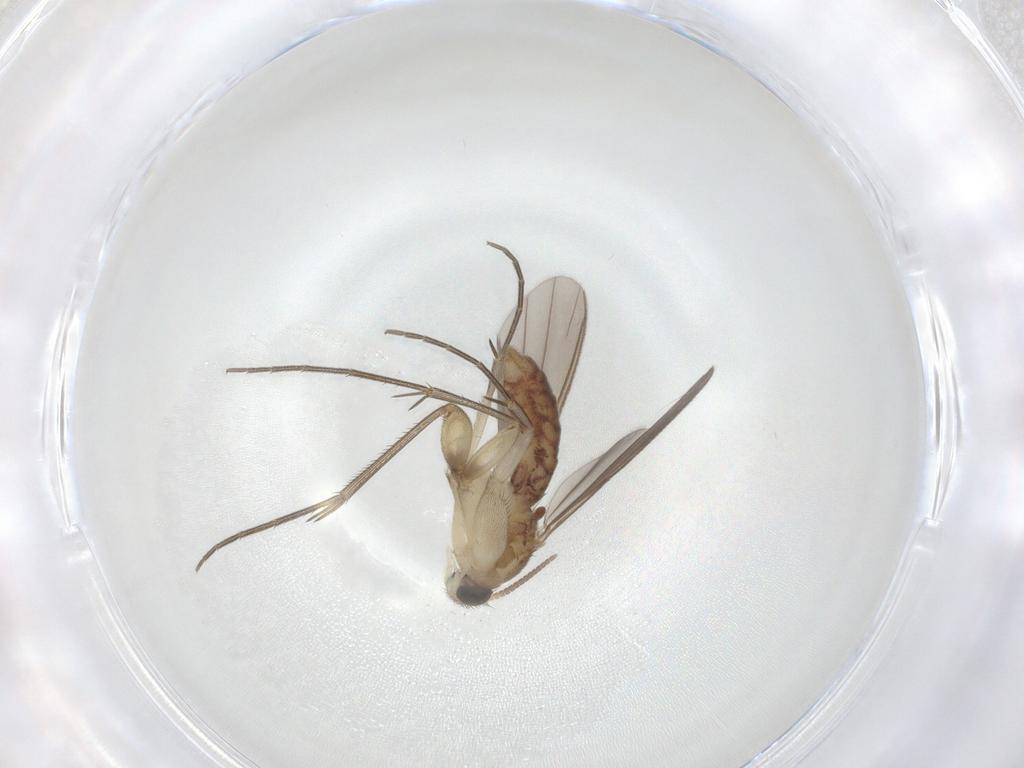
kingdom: Animalia
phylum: Arthropoda
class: Insecta
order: Diptera
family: Mycetophilidae
